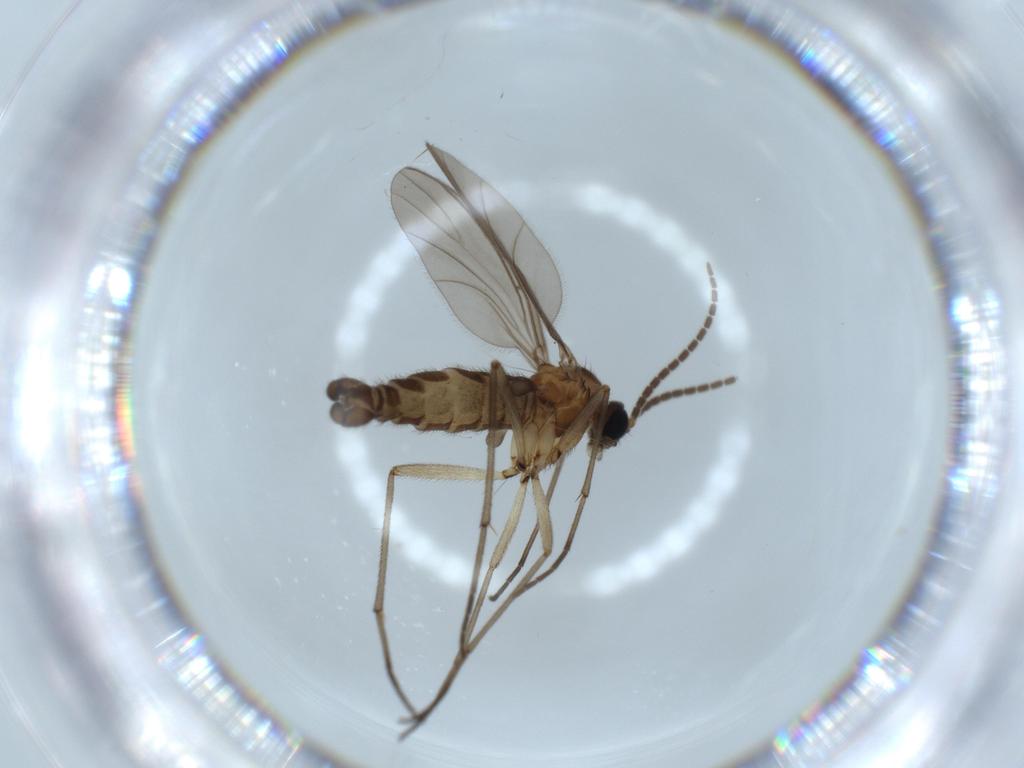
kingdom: Animalia
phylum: Arthropoda
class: Insecta
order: Diptera
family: Sciaridae
